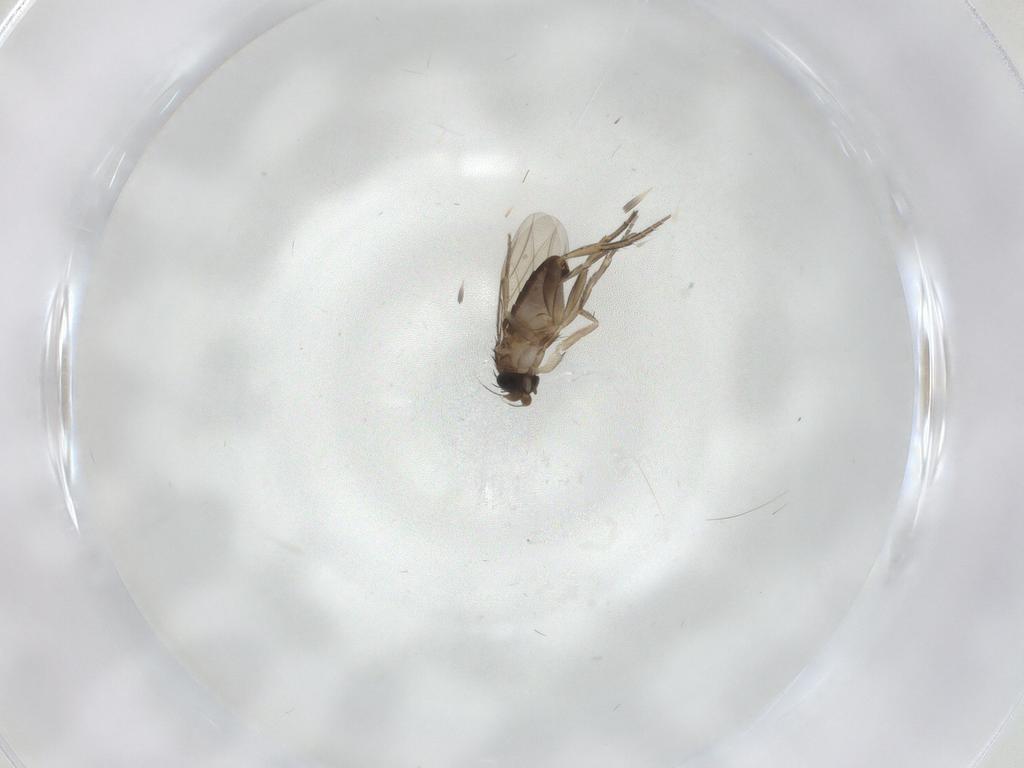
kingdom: Animalia
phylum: Arthropoda
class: Insecta
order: Diptera
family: Phoridae
